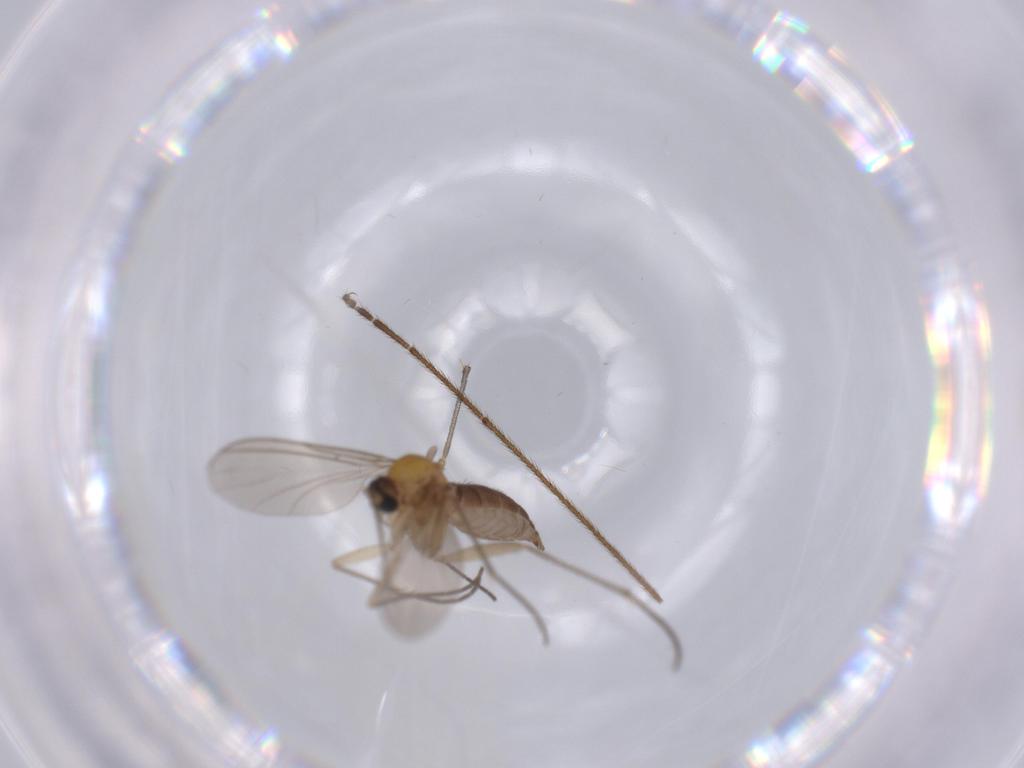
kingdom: Animalia
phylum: Arthropoda
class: Insecta
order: Diptera
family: Sciaridae
